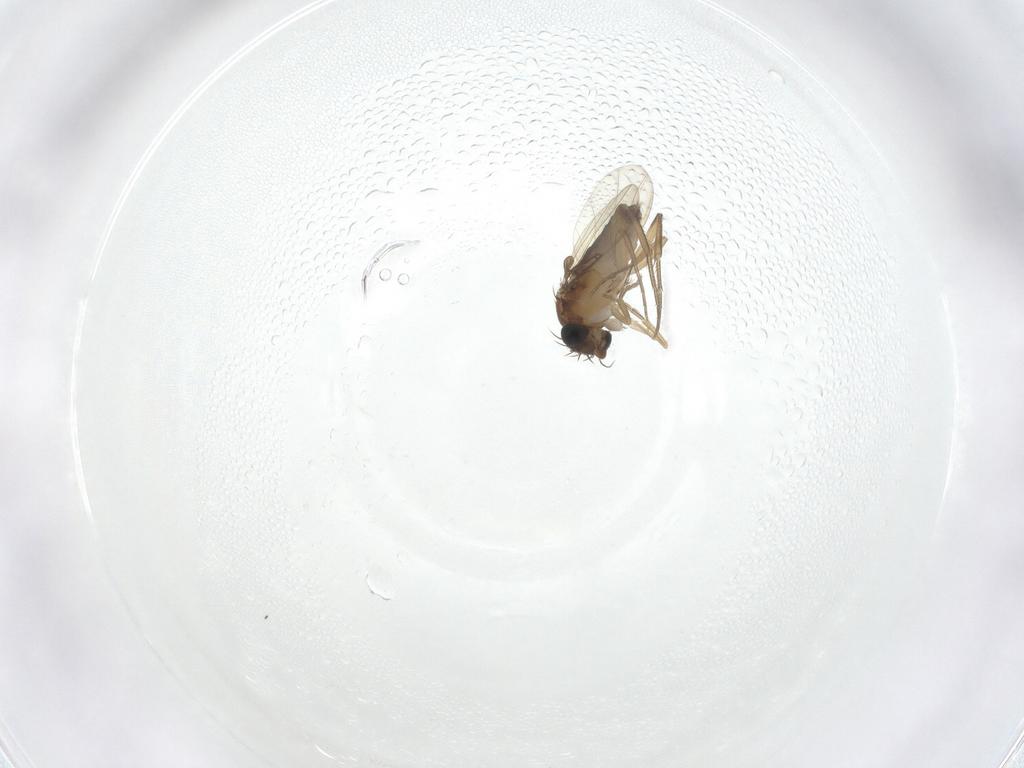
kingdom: Animalia
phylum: Arthropoda
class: Insecta
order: Diptera
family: Phoridae
